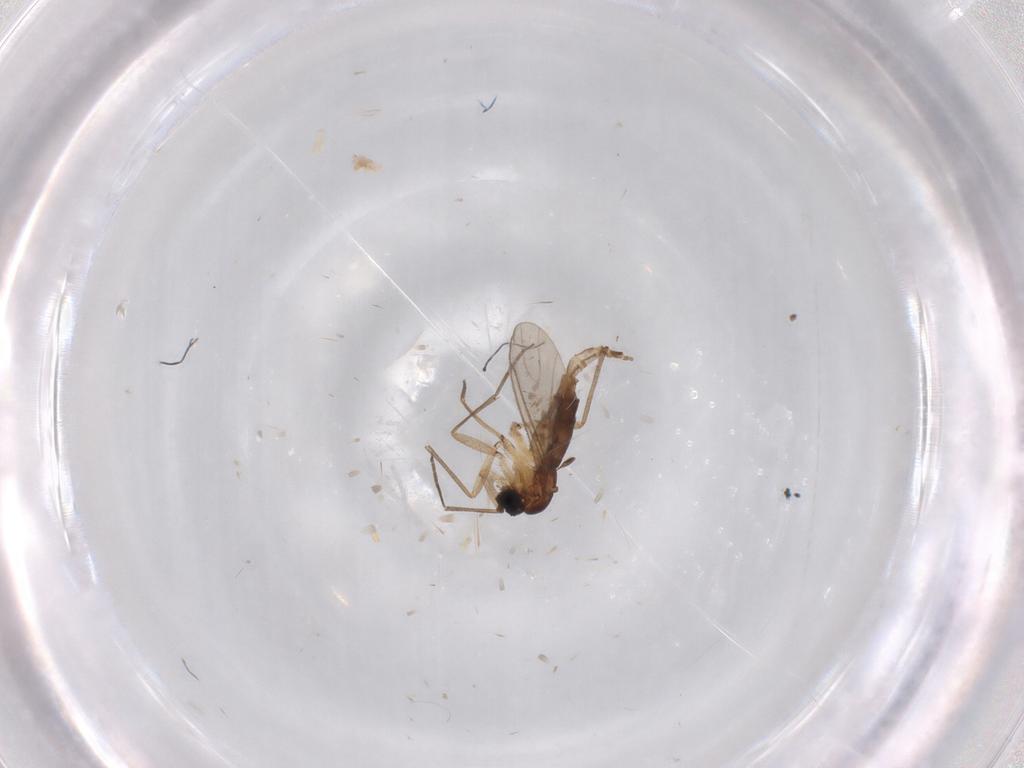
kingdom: Animalia
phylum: Arthropoda
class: Insecta
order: Diptera
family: Sciaridae
